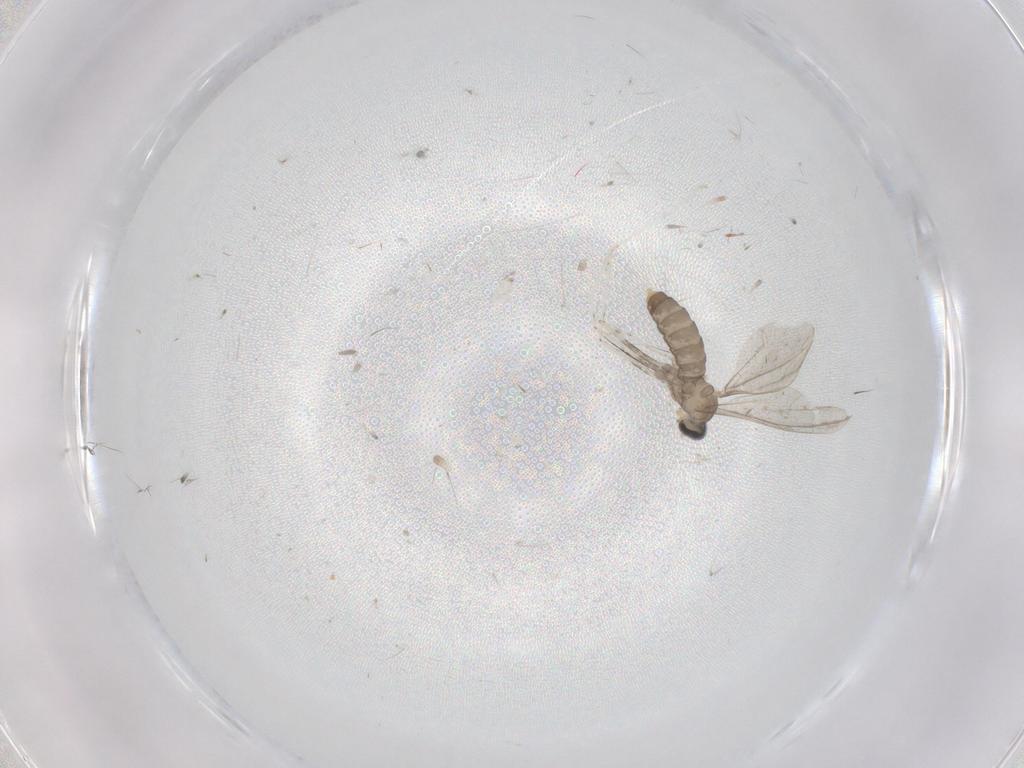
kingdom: Animalia
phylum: Arthropoda
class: Insecta
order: Diptera
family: Cecidomyiidae
